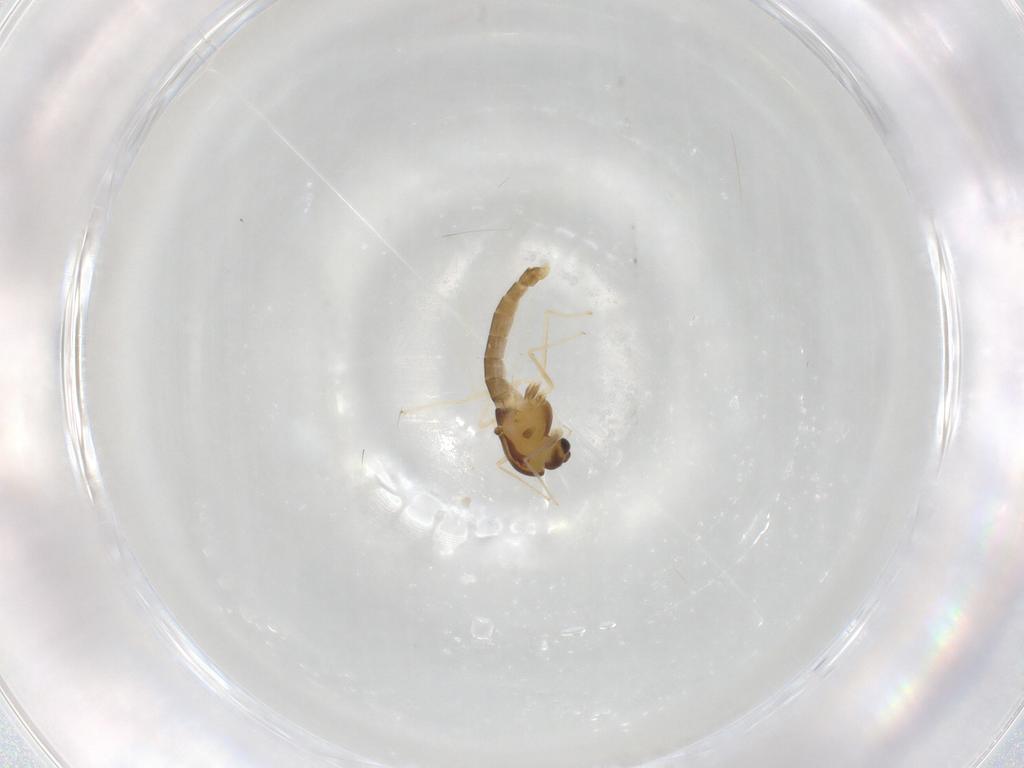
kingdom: Animalia
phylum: Arthropoda
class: Insecta
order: Diptera
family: Chironomidae
